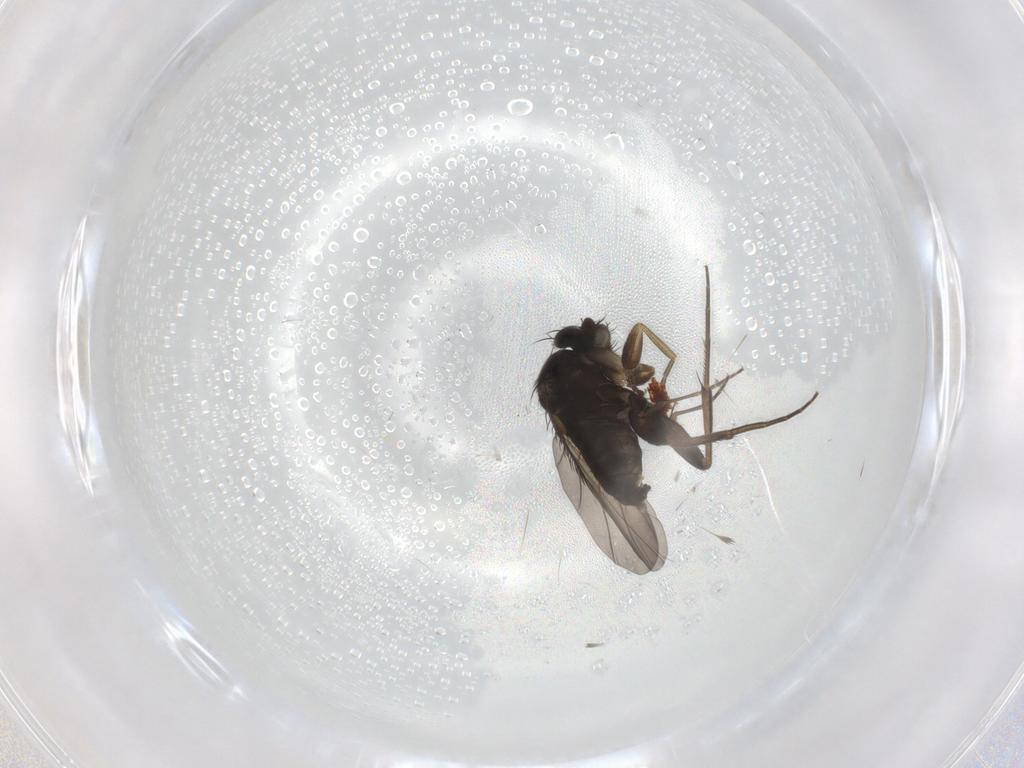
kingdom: Animalia
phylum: Arthropoda
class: Insecta
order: Diptera
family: Phoridae
